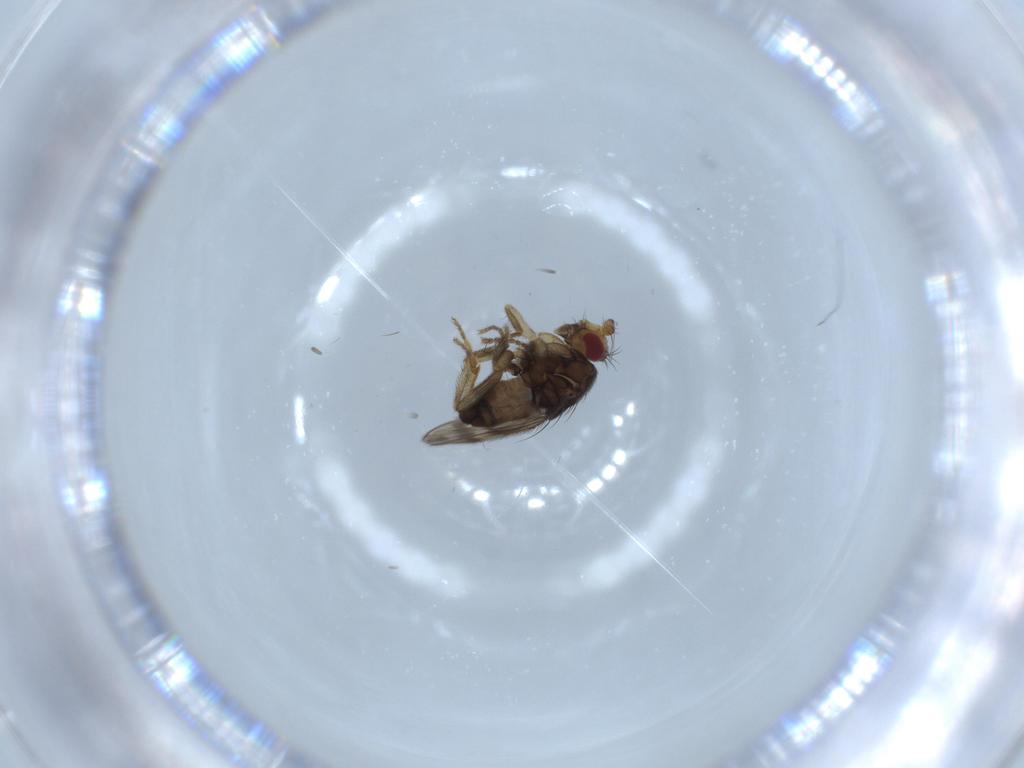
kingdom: Animalia
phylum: Arthropoda
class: Insecta
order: Diptera
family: Sphaeroceridae
